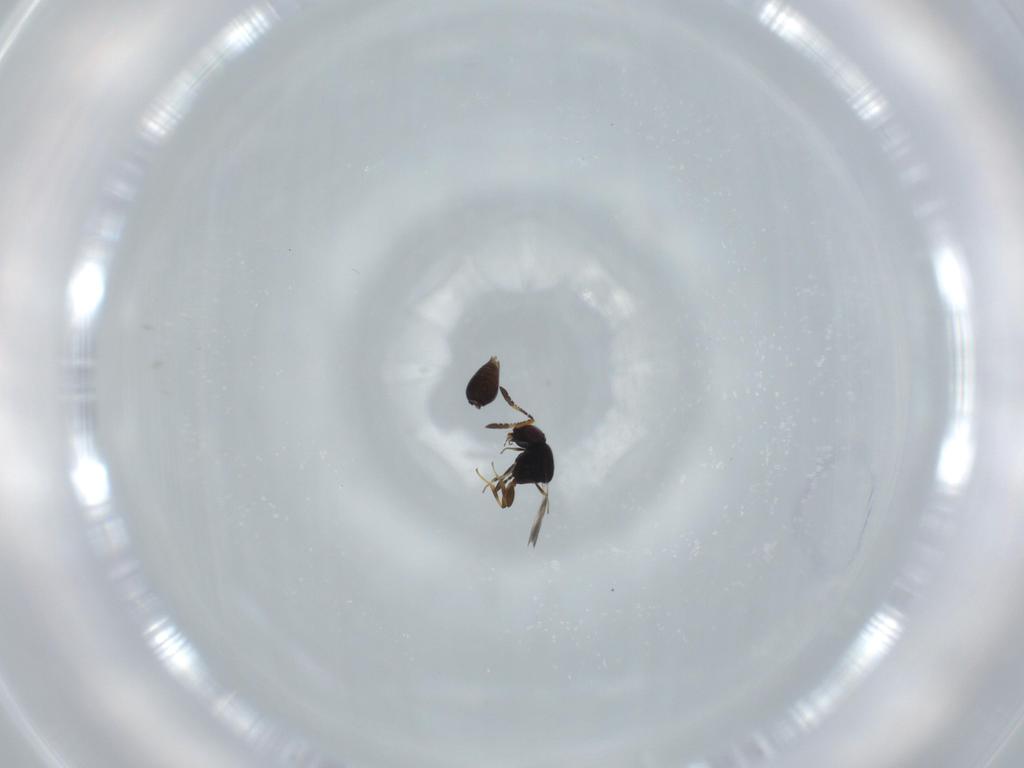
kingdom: Animalia
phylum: Arthropoda
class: Insecta
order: Hymenoptera
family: Ceraphronidae
